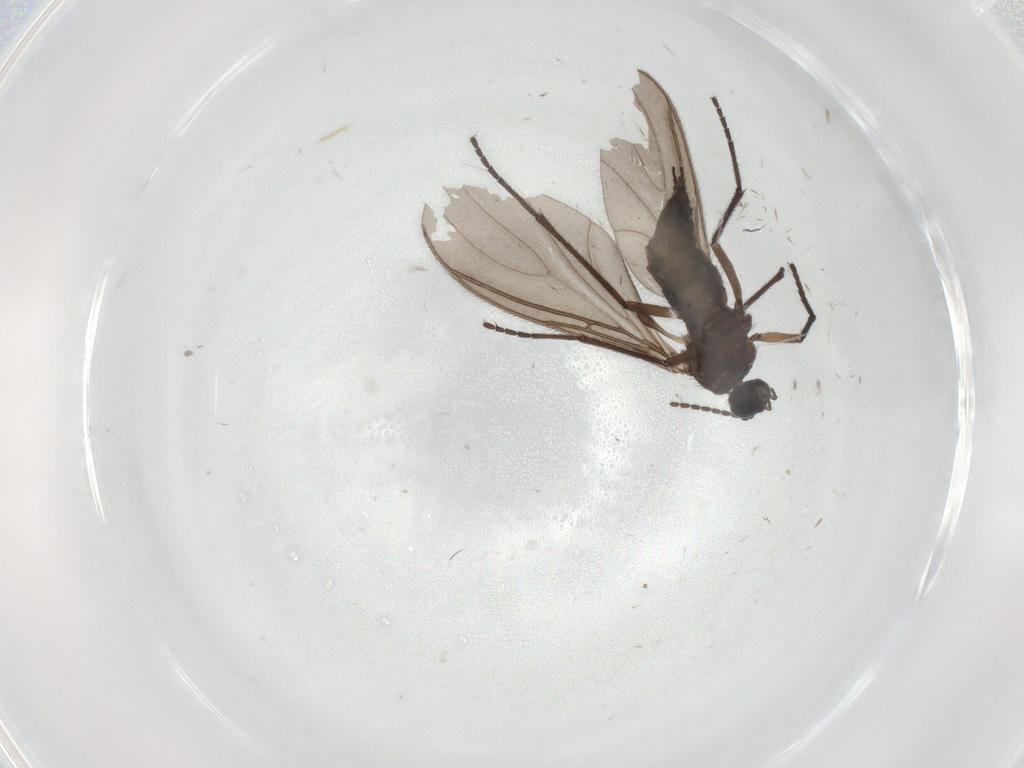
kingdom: Animalia
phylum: Arthropoda
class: Insecta
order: Diptera
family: Sciaridae
